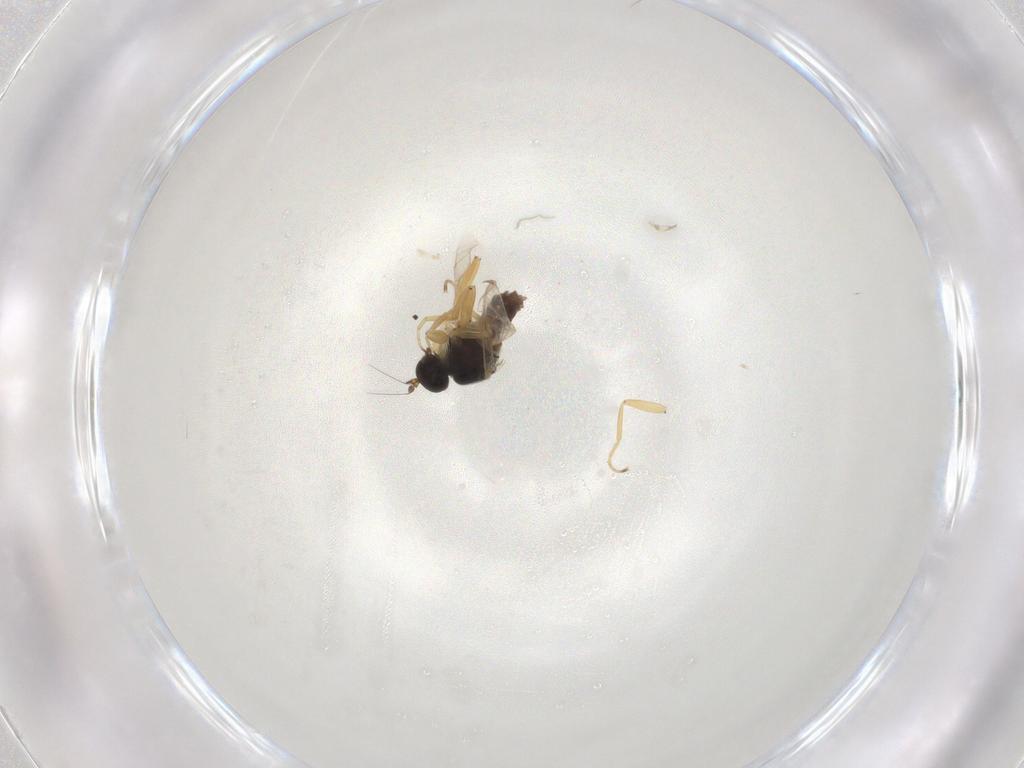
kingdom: Animalia
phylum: Arthropoda
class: Insecta
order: Diptera
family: Hybotidae
